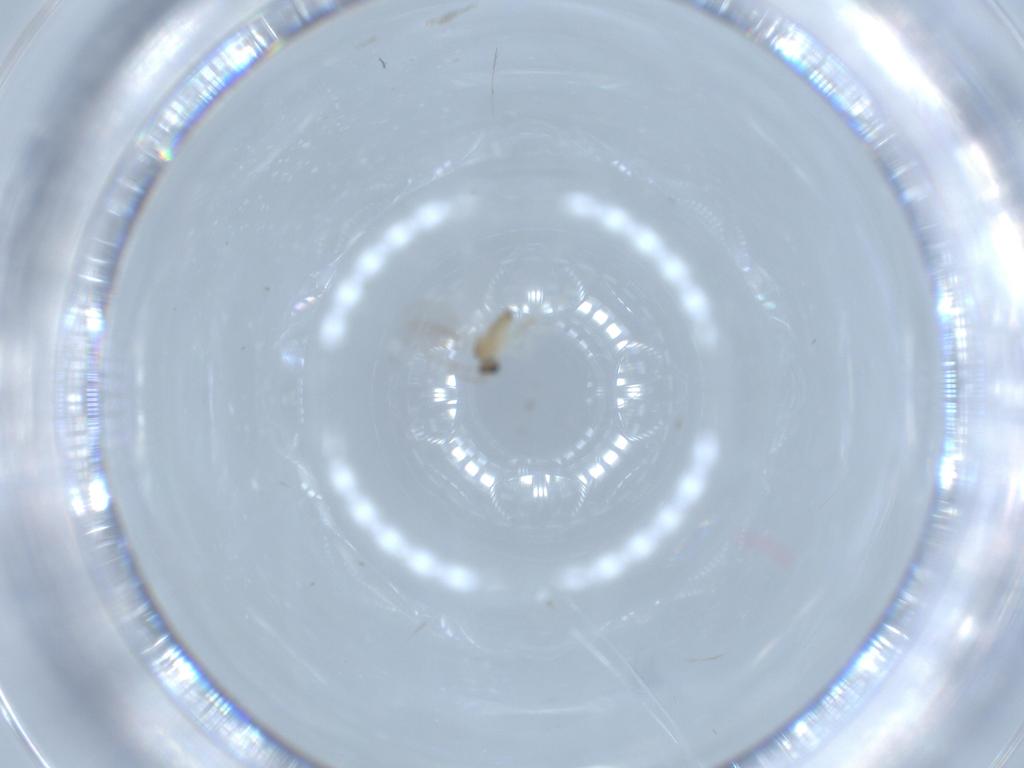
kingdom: Animalia
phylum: Arthropoda
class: Insecta
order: Diptera
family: Cecidomyiidae
